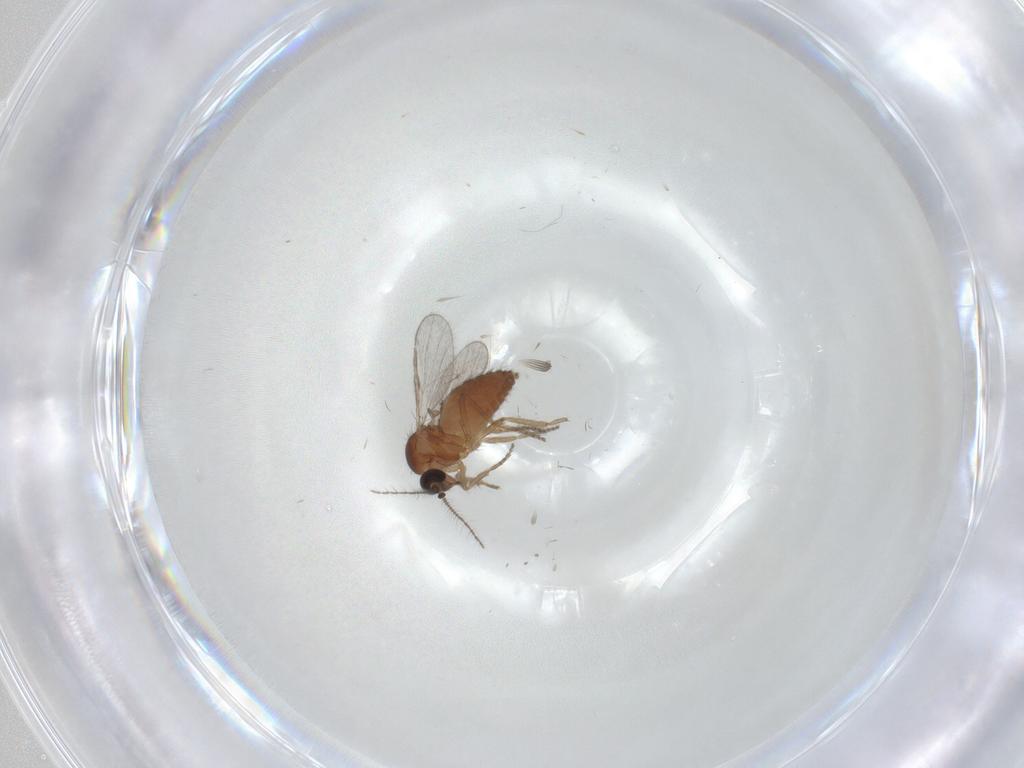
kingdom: Animalia
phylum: Arthropoda
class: Insecta
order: Diptera
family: Ceratopogonidae
